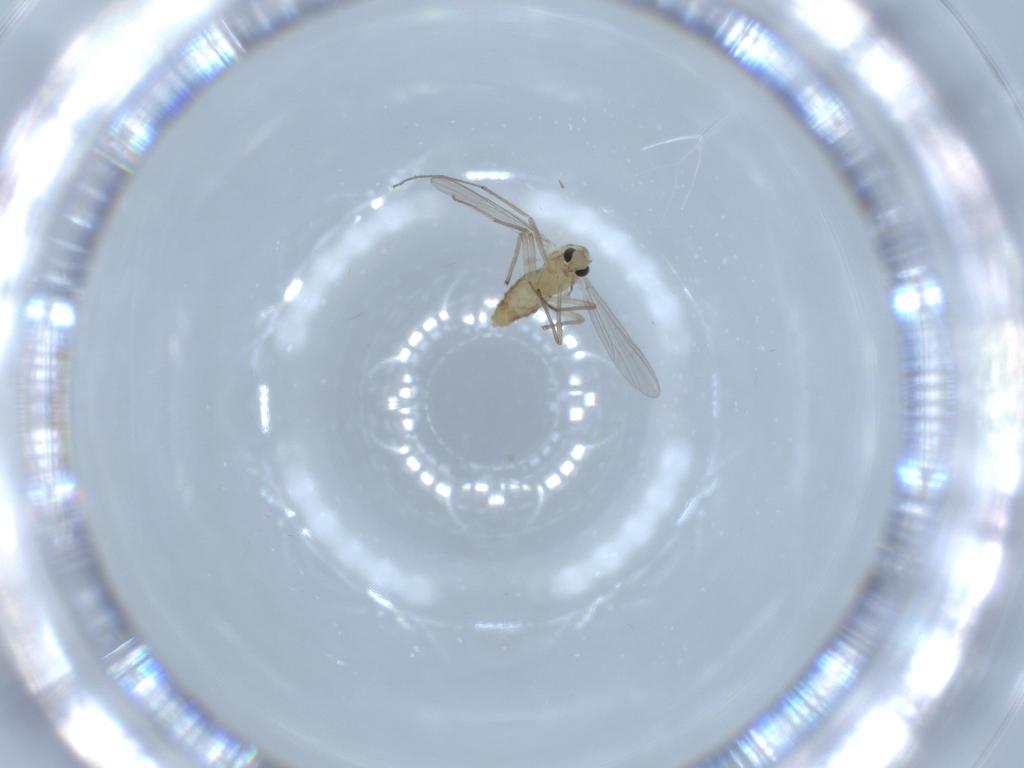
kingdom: Animalia
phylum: Arthropoda
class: Insecta
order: Diptera
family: Chironomidae
